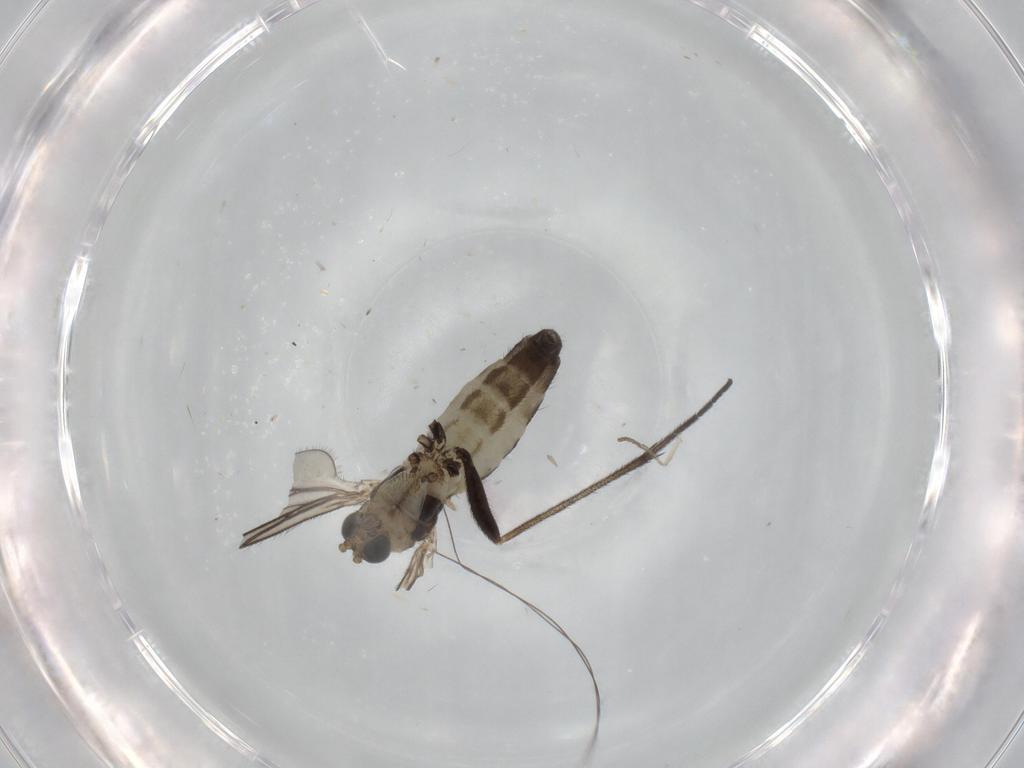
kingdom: Animalia
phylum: Arthropoda
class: Insecta
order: Diptera
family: Sciaridae
